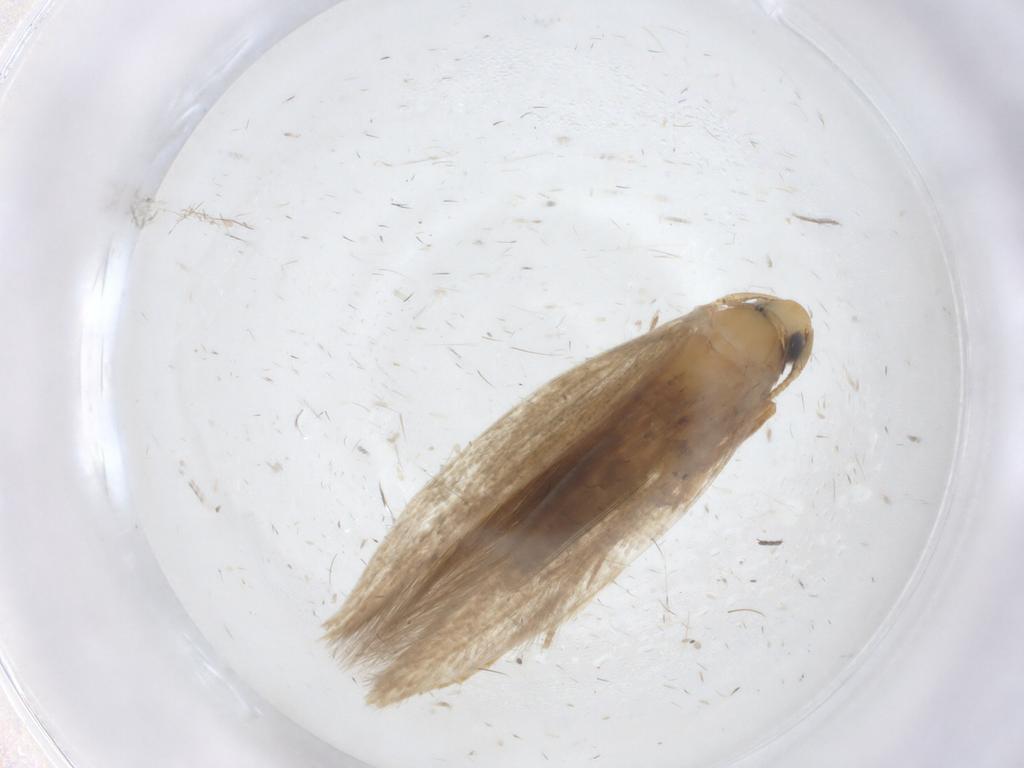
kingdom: Animalia
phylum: Arthropoda
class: Insecta
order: Lepidoptera
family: Tineidae
